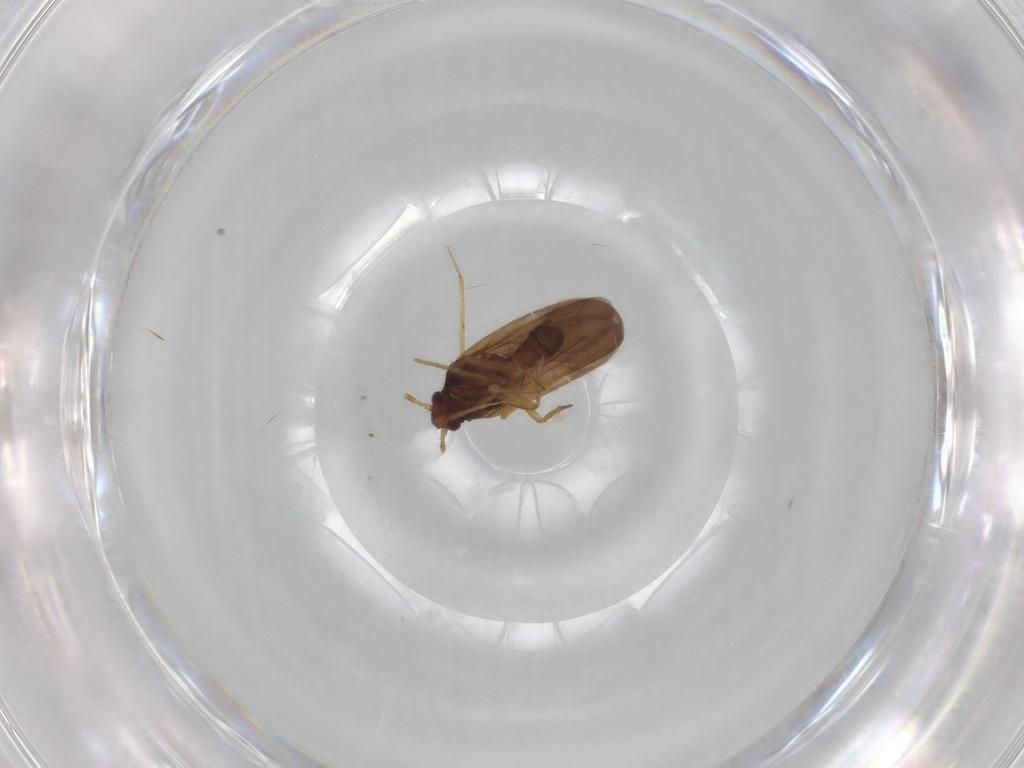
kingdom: Animalia
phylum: Arthropoda
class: Insecta
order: Hemiptera
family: Ceratocombidae
